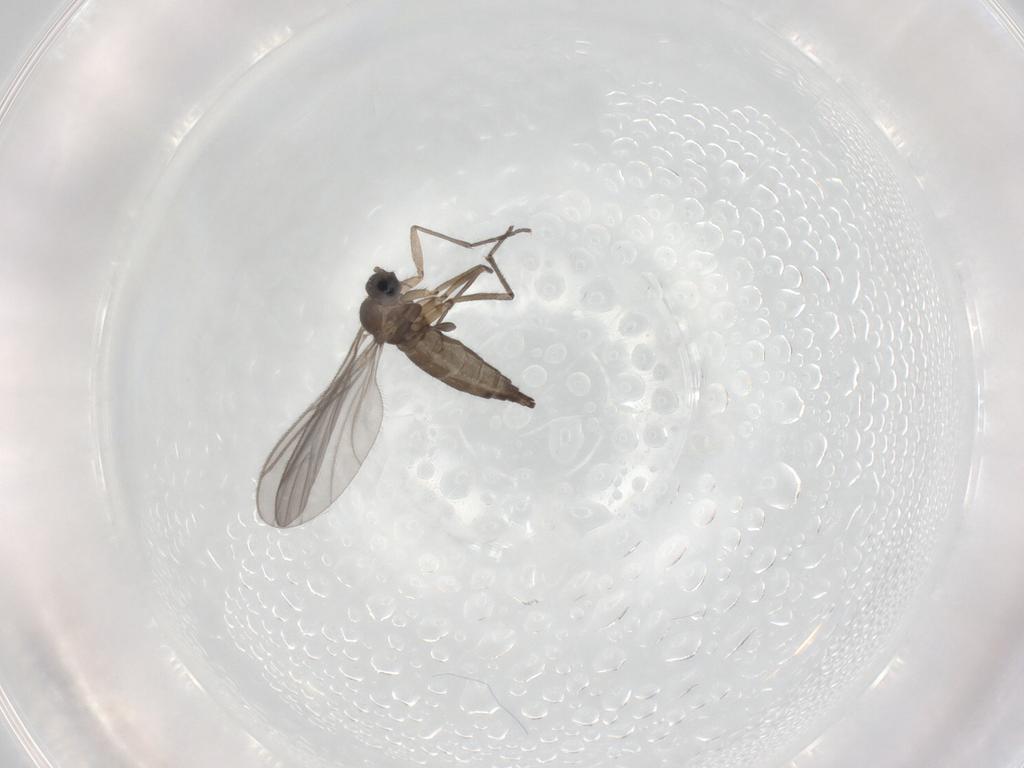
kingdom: Animalia
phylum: Arthropoda
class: Insecta
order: Diptera
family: Sciaridae
